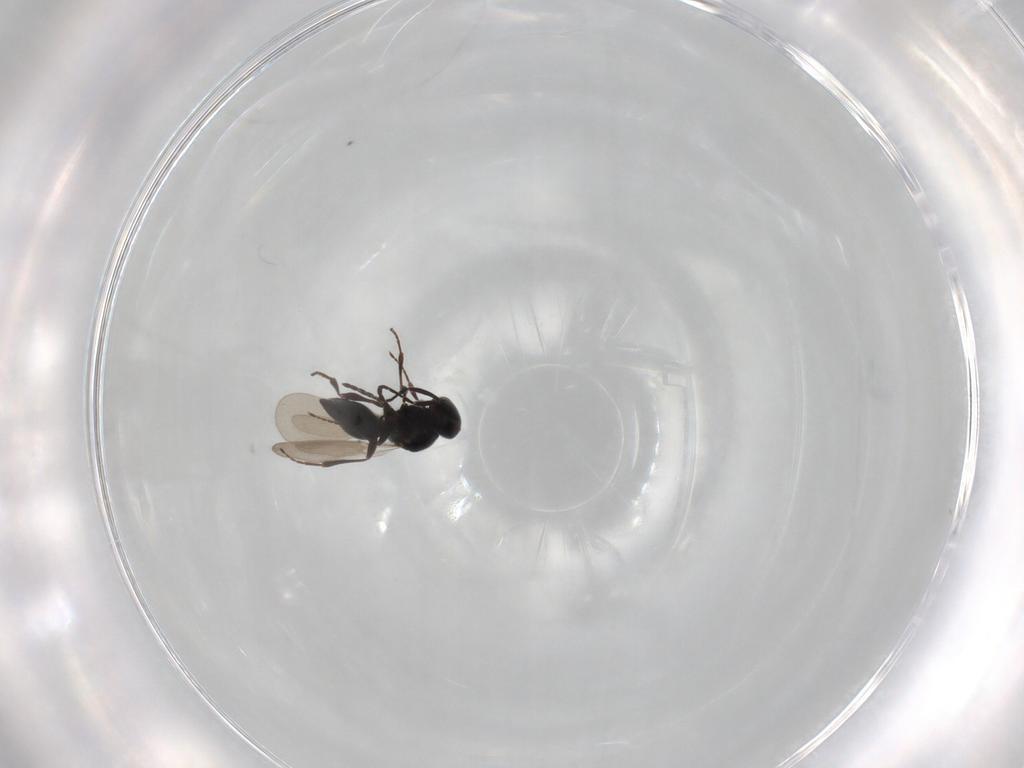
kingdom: Animalia
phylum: Arthropoda
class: Insecta
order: Hymenoptera
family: Platygastridae
